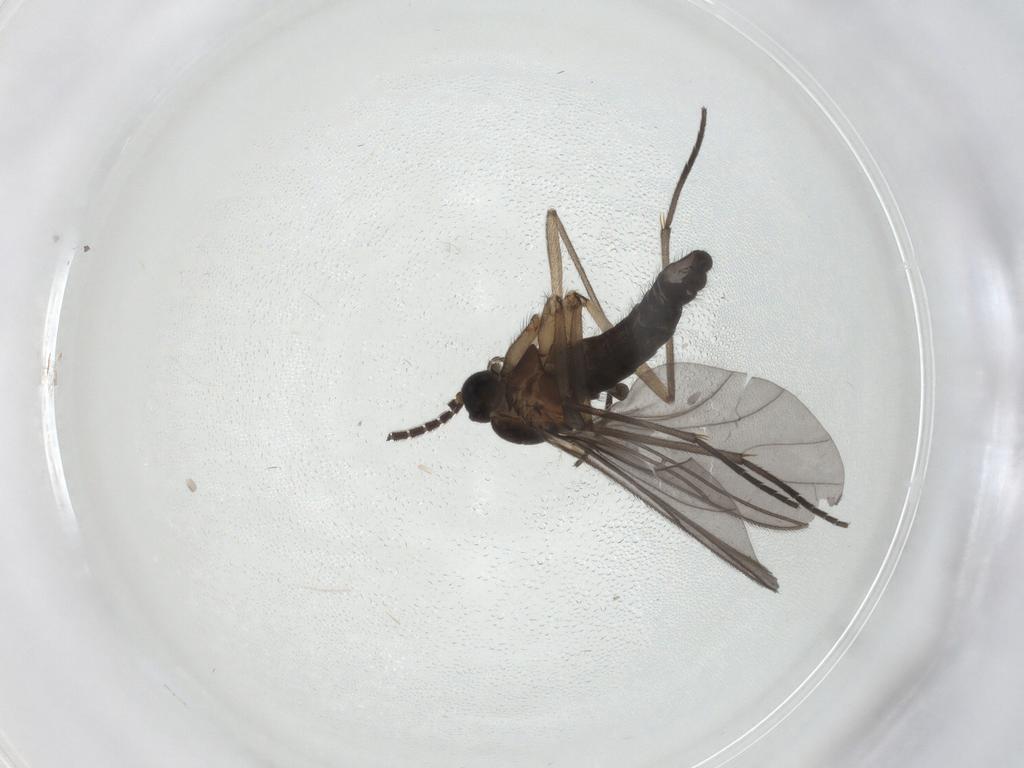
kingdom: Animalia
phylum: Arthropoda
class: Insecta
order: Diptera
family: Sciaridae
